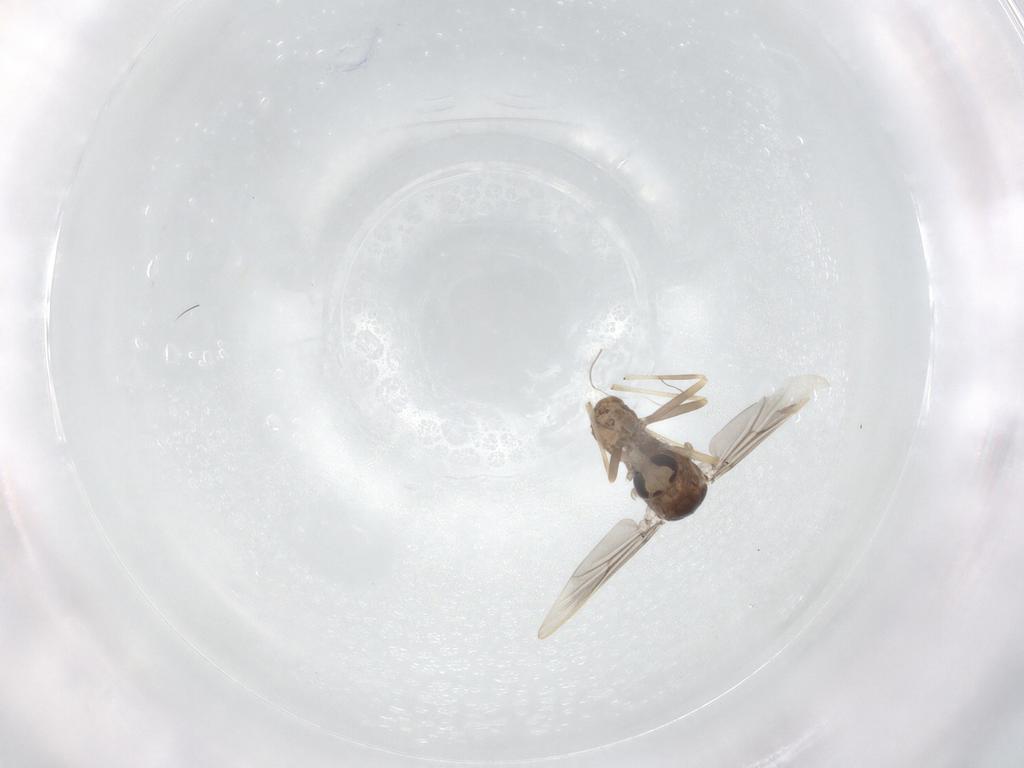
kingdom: Animalia
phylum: Arthropoda
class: Insecta
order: Diptera
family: Chironomidae
